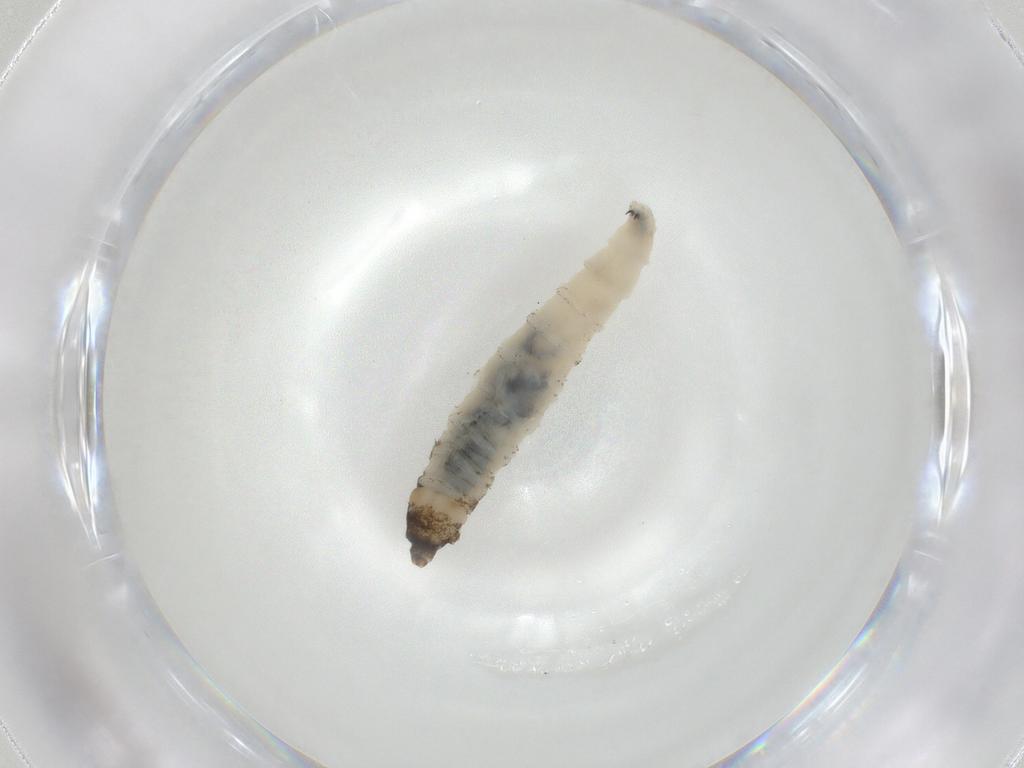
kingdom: Animalia
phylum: Arthropoda
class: Insecta
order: Diptera
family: Drosophilidae
